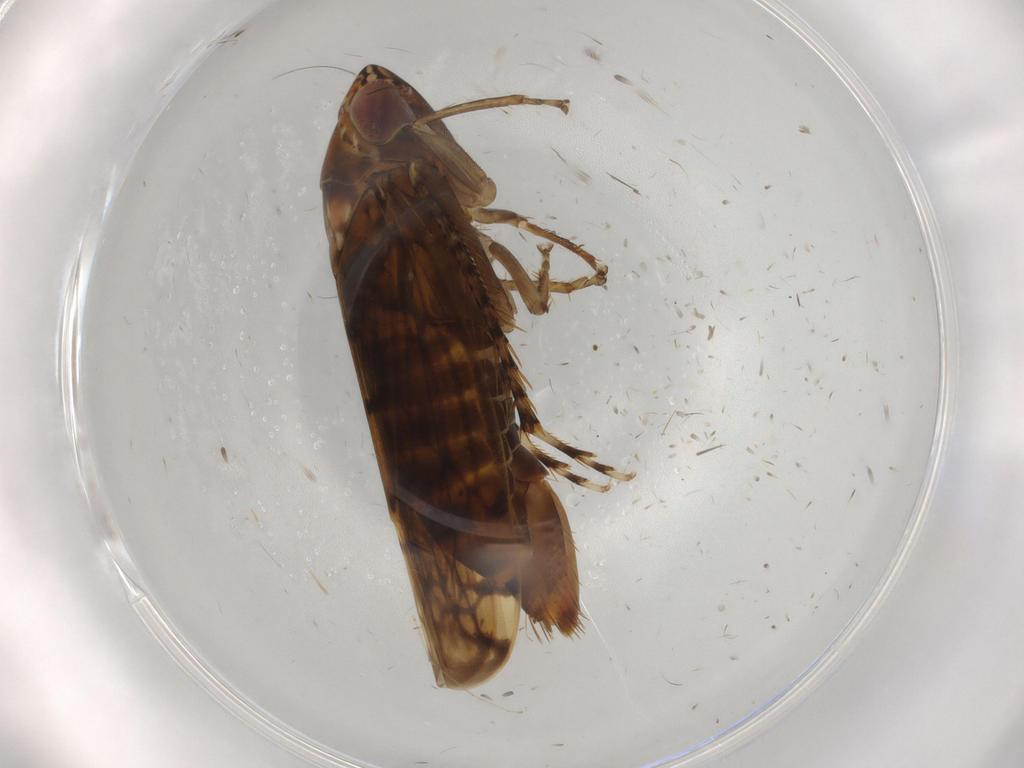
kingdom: Animalia
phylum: Arthropoda
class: Insecta
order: Hemiptera
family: Cicadellidae
